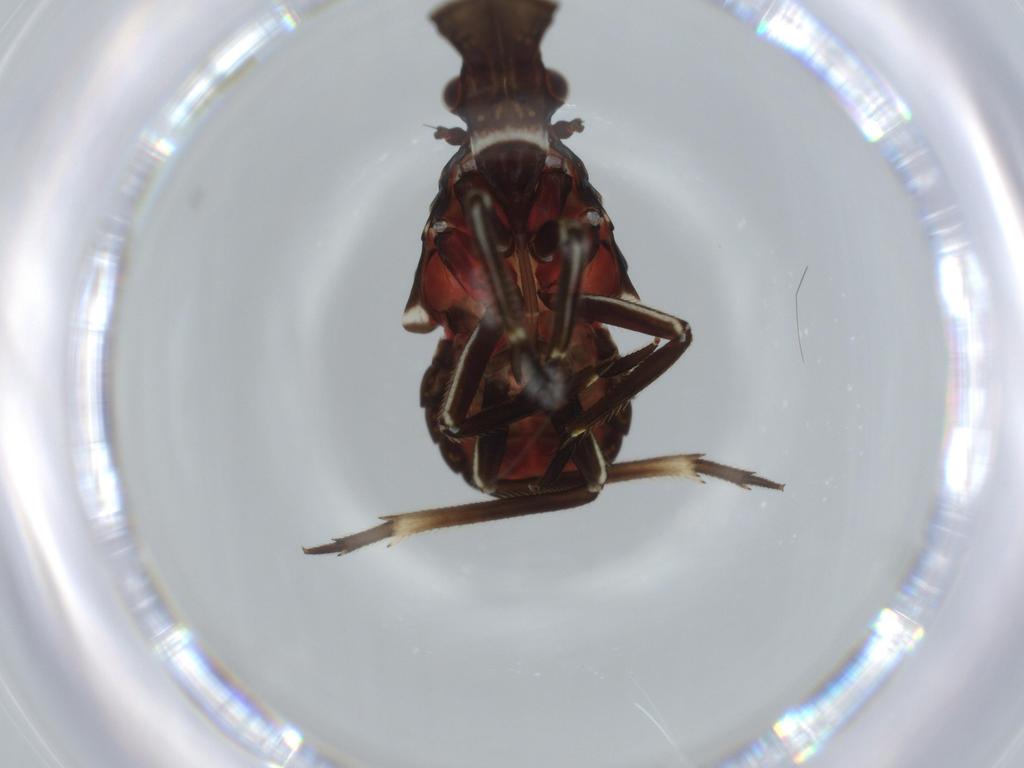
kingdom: Animalia
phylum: Arthropoda
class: Insecta
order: Hemiptera
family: Fulgoridae
